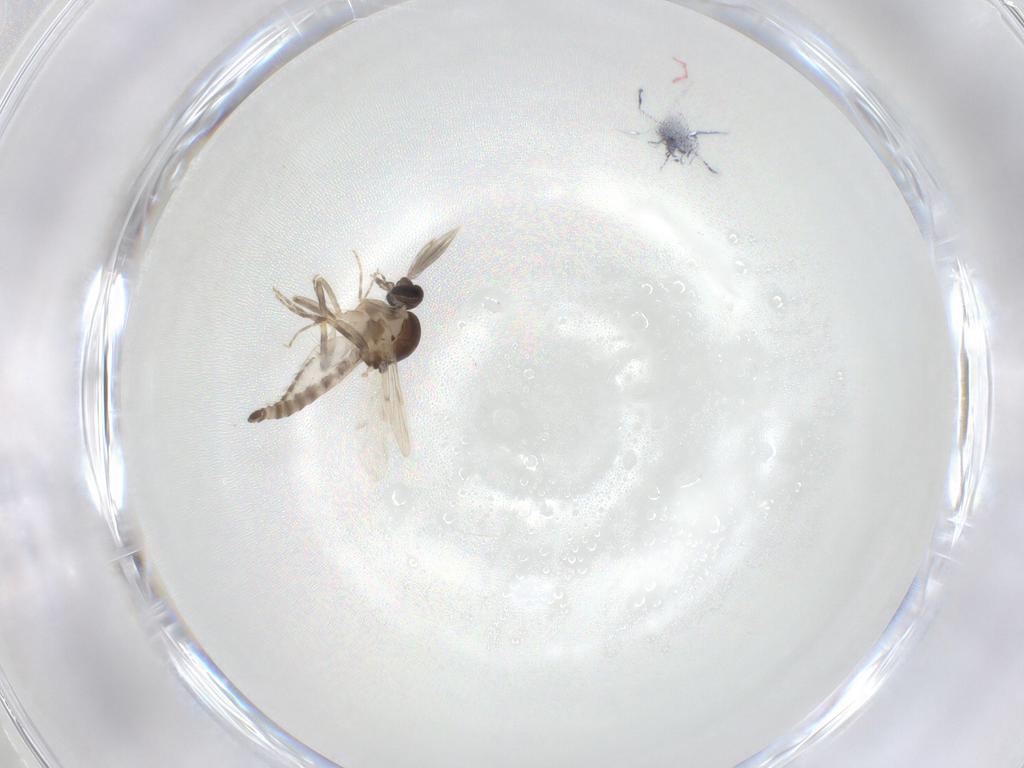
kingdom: Animalia
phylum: Arthropoda
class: Insecta
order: Diptera
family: Ceratopogonidae
